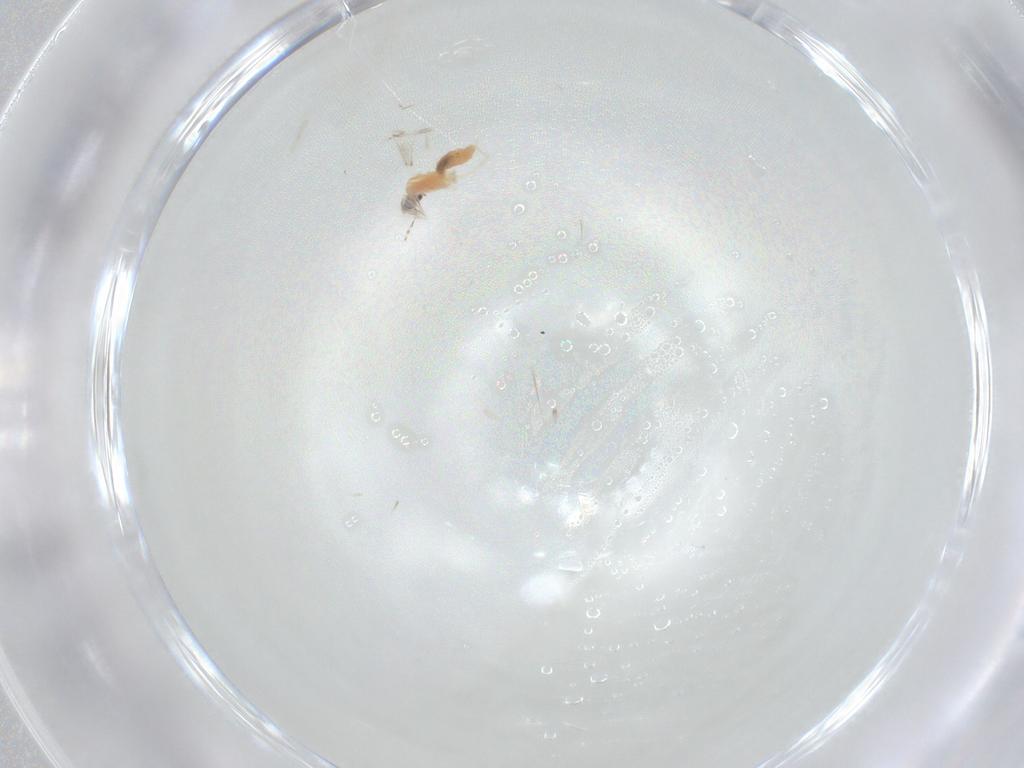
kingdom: Animalia
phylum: Arthropoda
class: Insecta
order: Diptera
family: Cecidomyiidae
